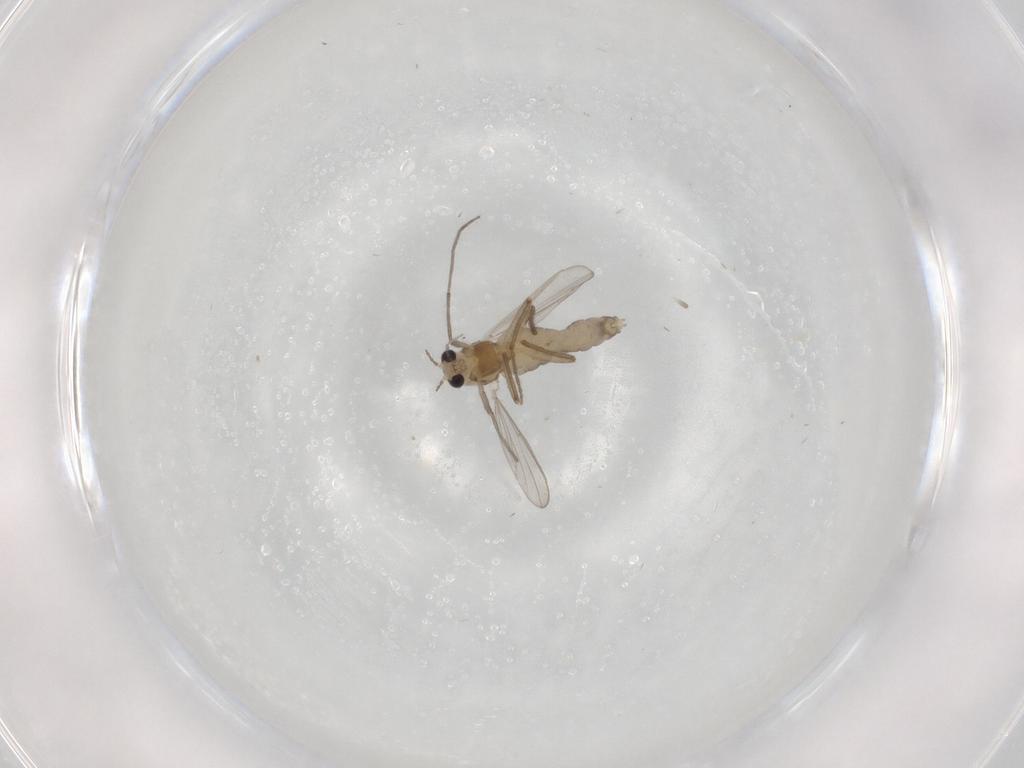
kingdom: Animalia
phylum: Arthropoda
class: Insecta
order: Diptera
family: Chironomidae
